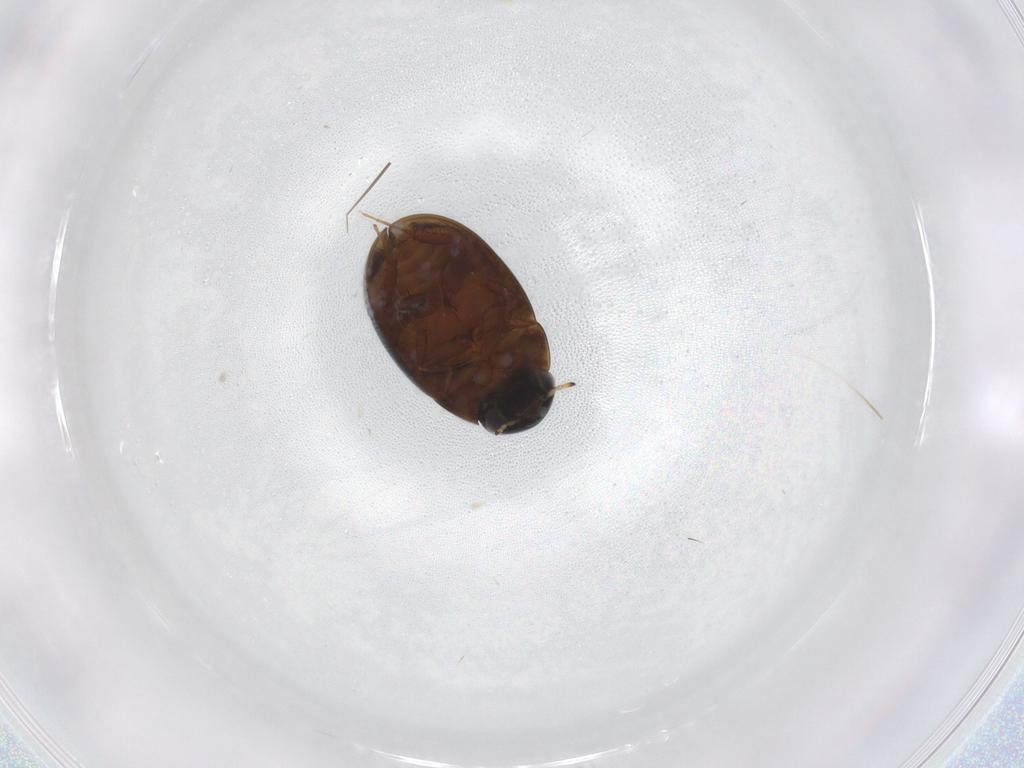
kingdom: Animalia
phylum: Arthropoda
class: Insecta
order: Coleoptera
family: Hydrophilidae
